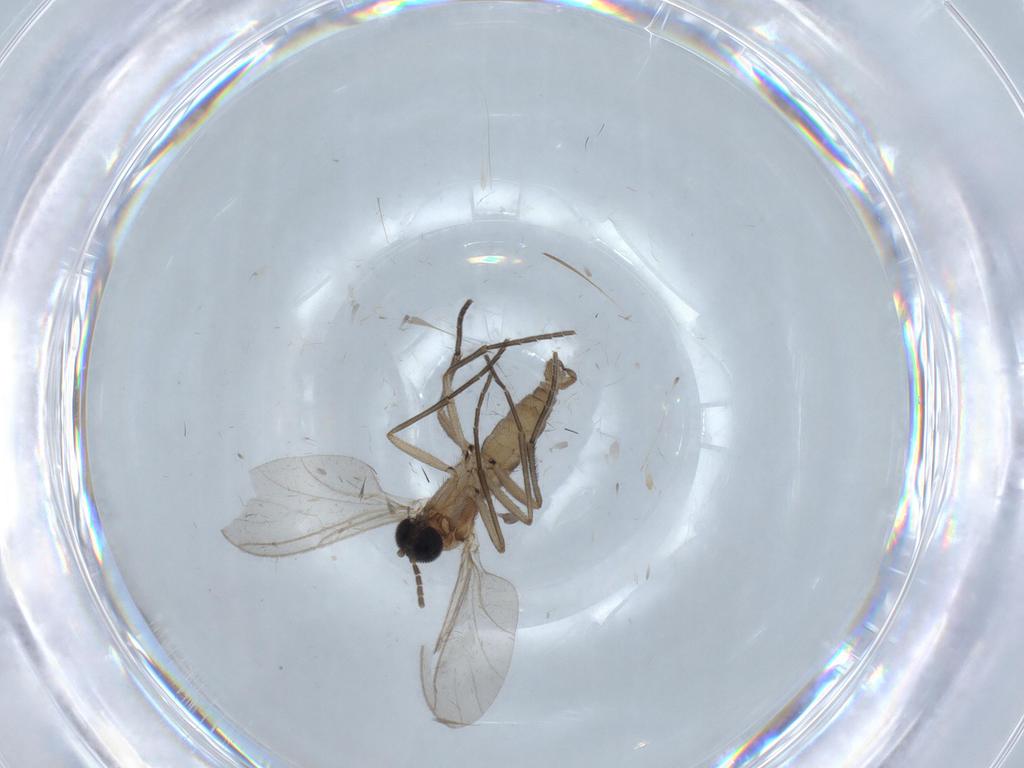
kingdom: Animalia
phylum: Arthropoda
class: Insecta
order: Diptera
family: Sciaridae
